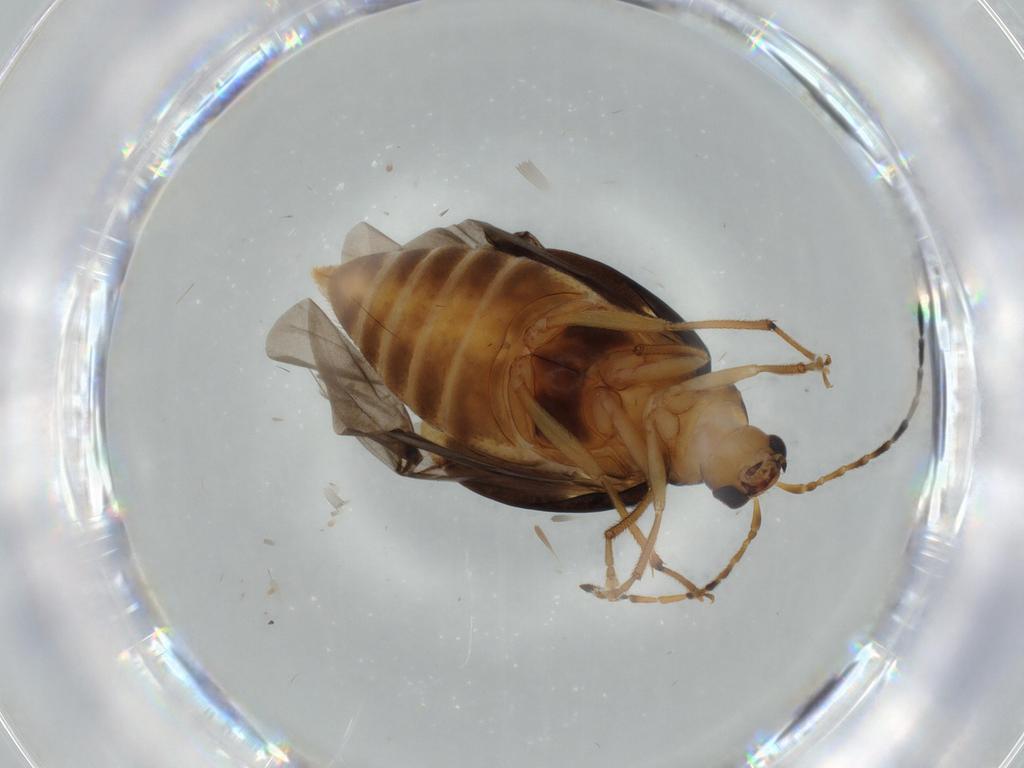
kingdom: Animalia
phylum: Arthropoda
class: Insecta
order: Coleoptera
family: Cantharidae
